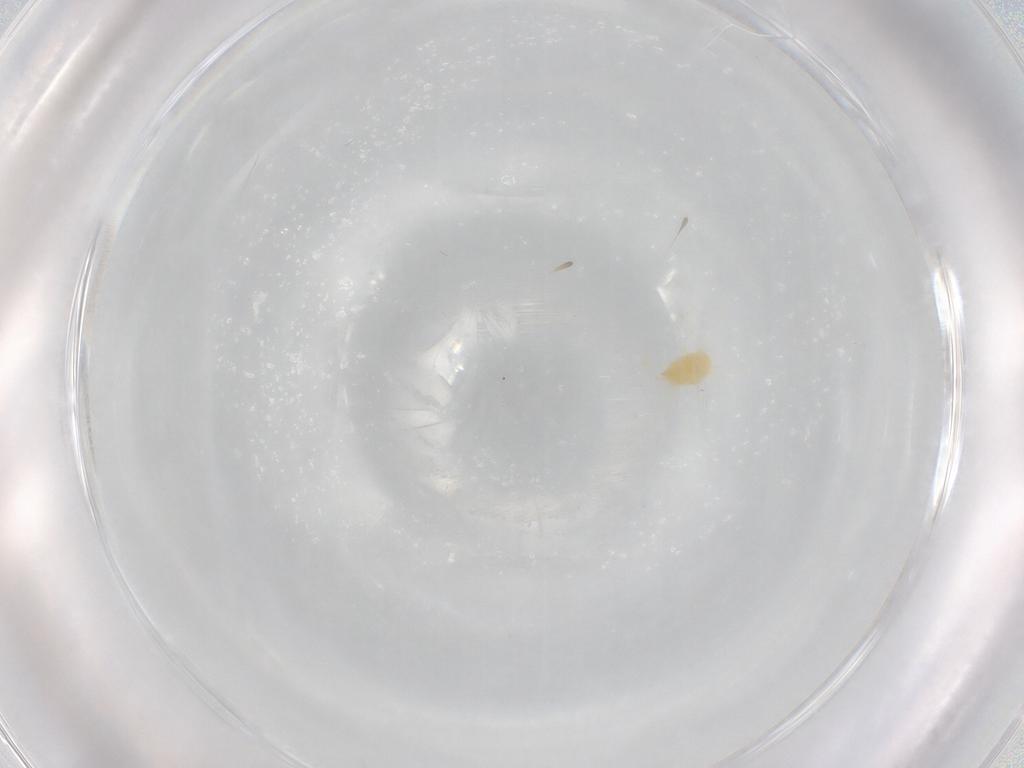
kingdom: Animalia
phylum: Arthropoda
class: Arachnida
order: Trombidiformes
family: Tetranychidae
